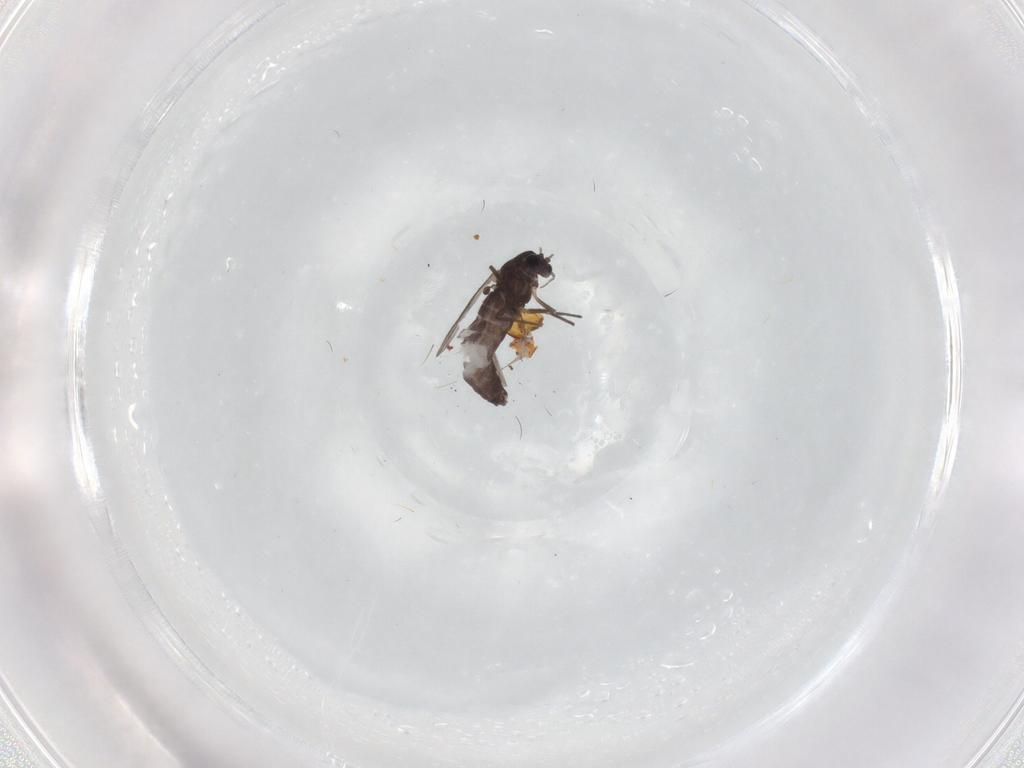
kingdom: Animalia
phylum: Arthropoda
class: Insecta
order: Diptera
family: Chironomidae
